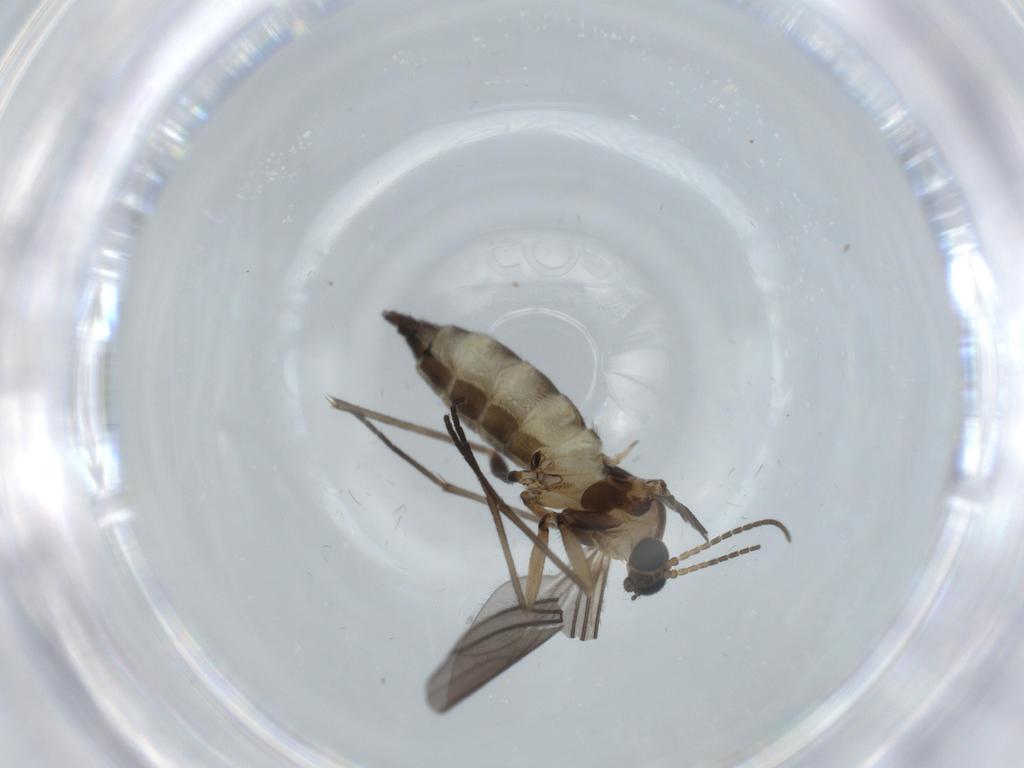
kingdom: Animalia
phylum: Arthropoda
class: Insecta
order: Diptera
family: Sciaridae
